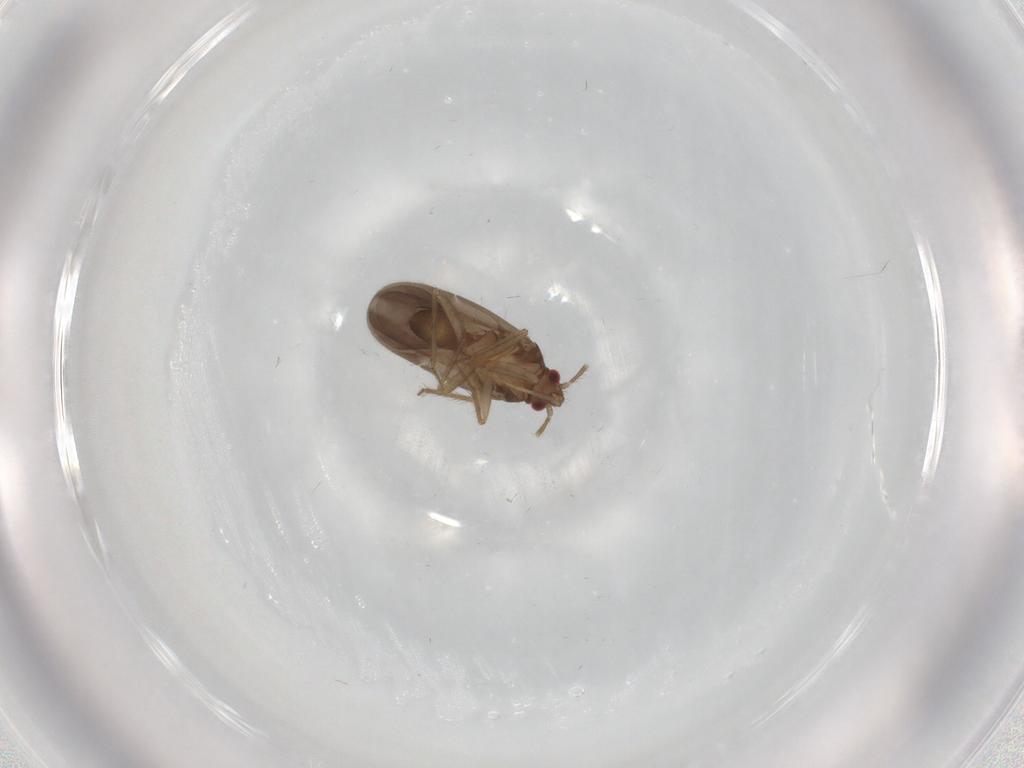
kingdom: Animalia
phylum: Arthropoda
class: Insecta
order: Hemiptera
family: Ceratocombidae
